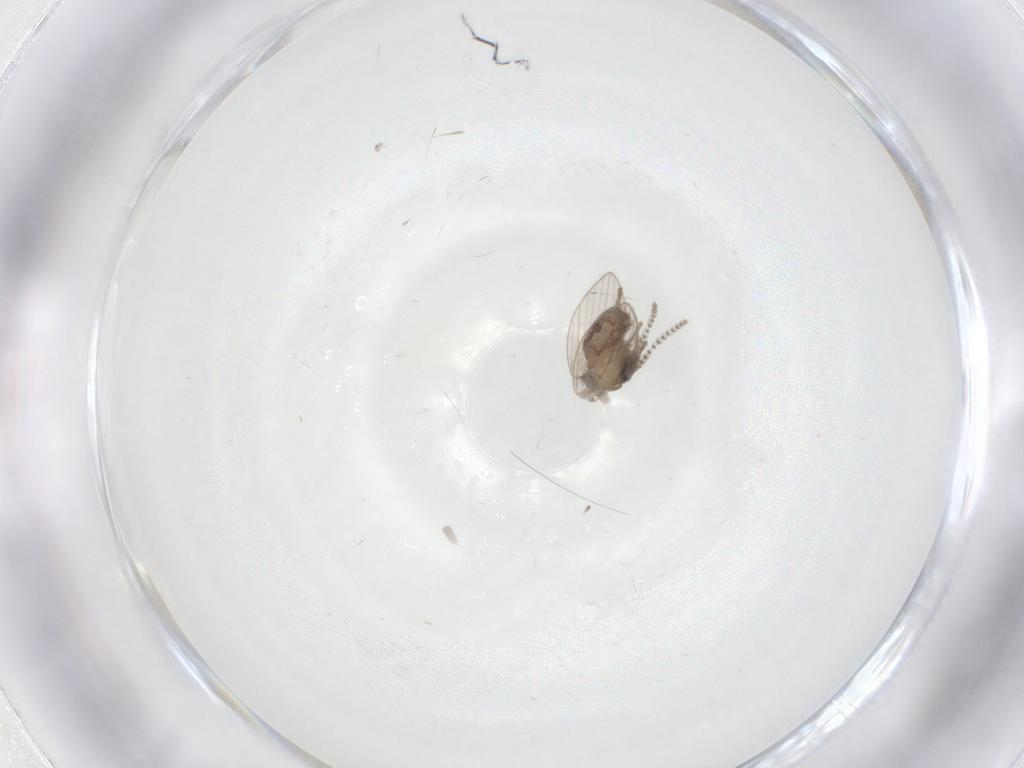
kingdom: Animalia
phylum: Arthropoda
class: Insecta
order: Diptera
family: Psychodidae
